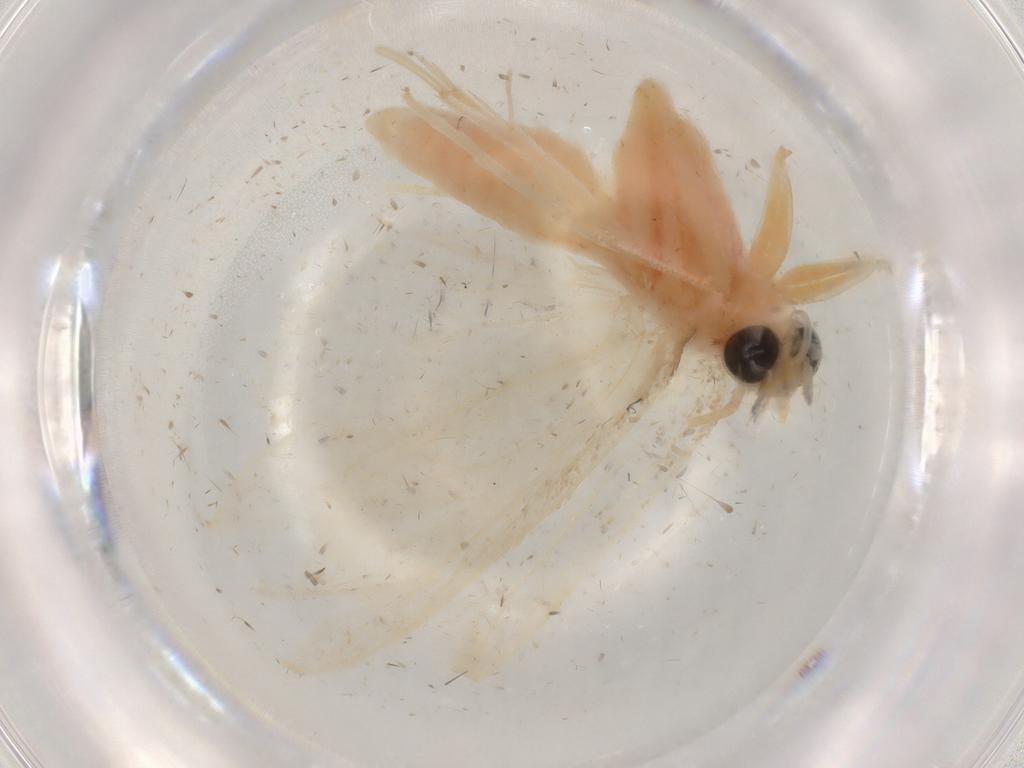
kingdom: Animalia
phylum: Arthropoda
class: Insecta
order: Lepidoptera
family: Elachistidae
